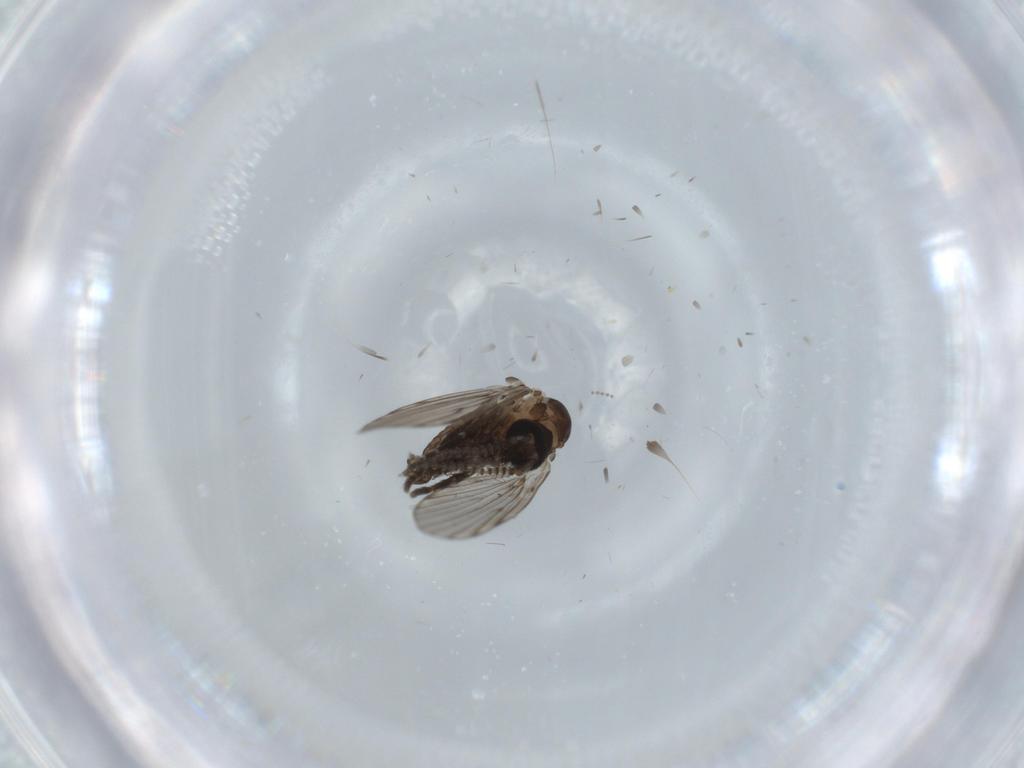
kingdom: Animalia
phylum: Arthropoda
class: Insecta
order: Diptera
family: Psychodidae
